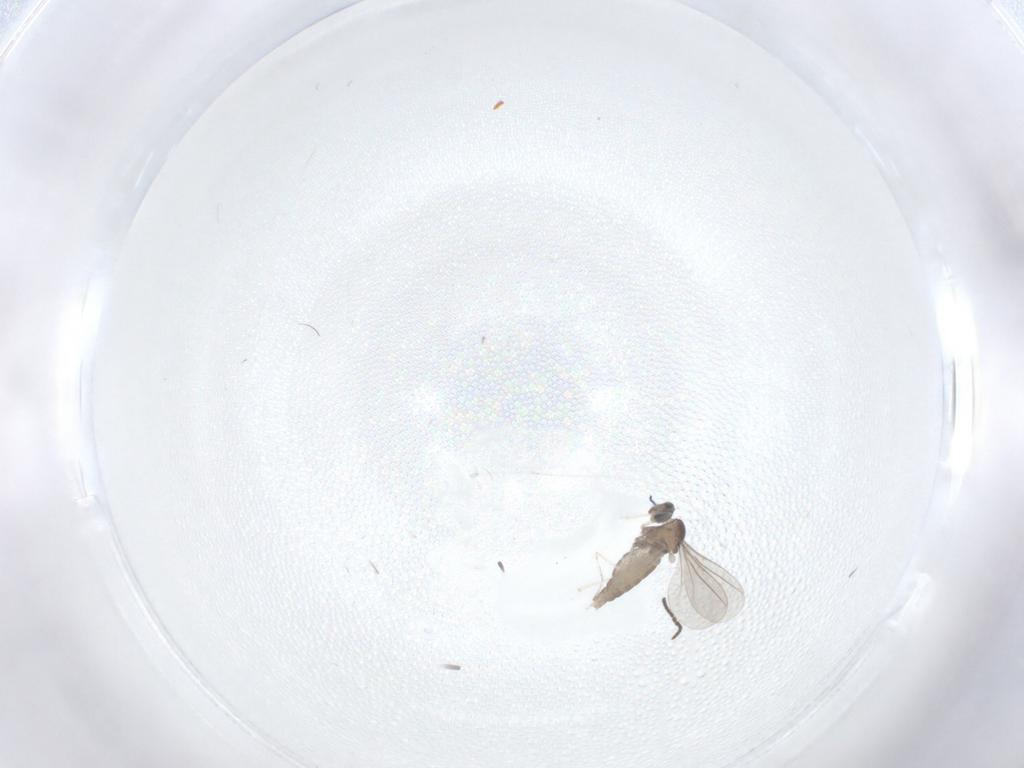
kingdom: Animalia
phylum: Arthropoda
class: Insecta
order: Diptera
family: Cecidomyiidae
